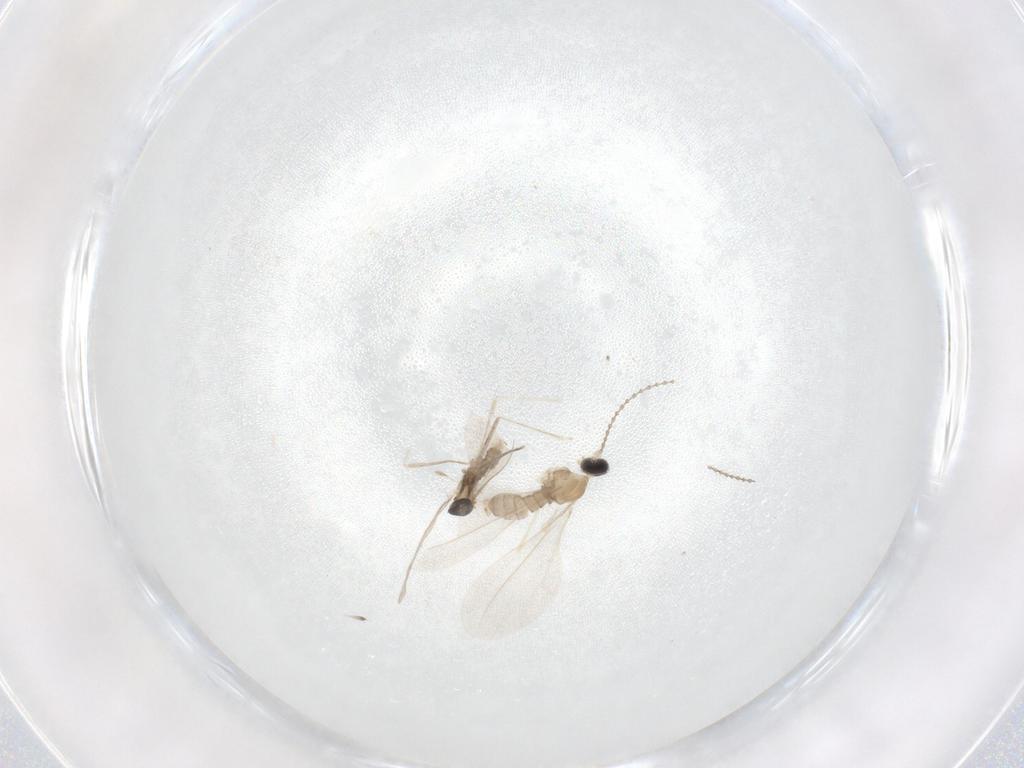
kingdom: Animalia
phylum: Arthropoda
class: Insecta
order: Diptera
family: Cecidomyiidae
